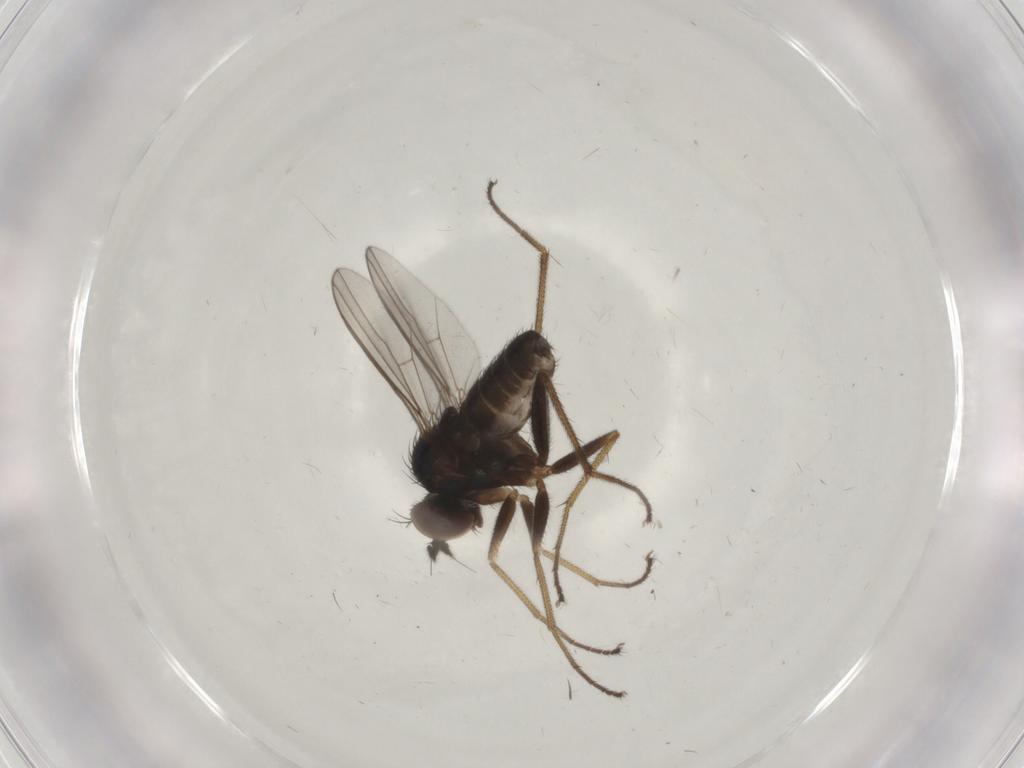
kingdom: Animalia
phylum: Arthropoda
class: Insecta
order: Diptera
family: Dolichopodidae
